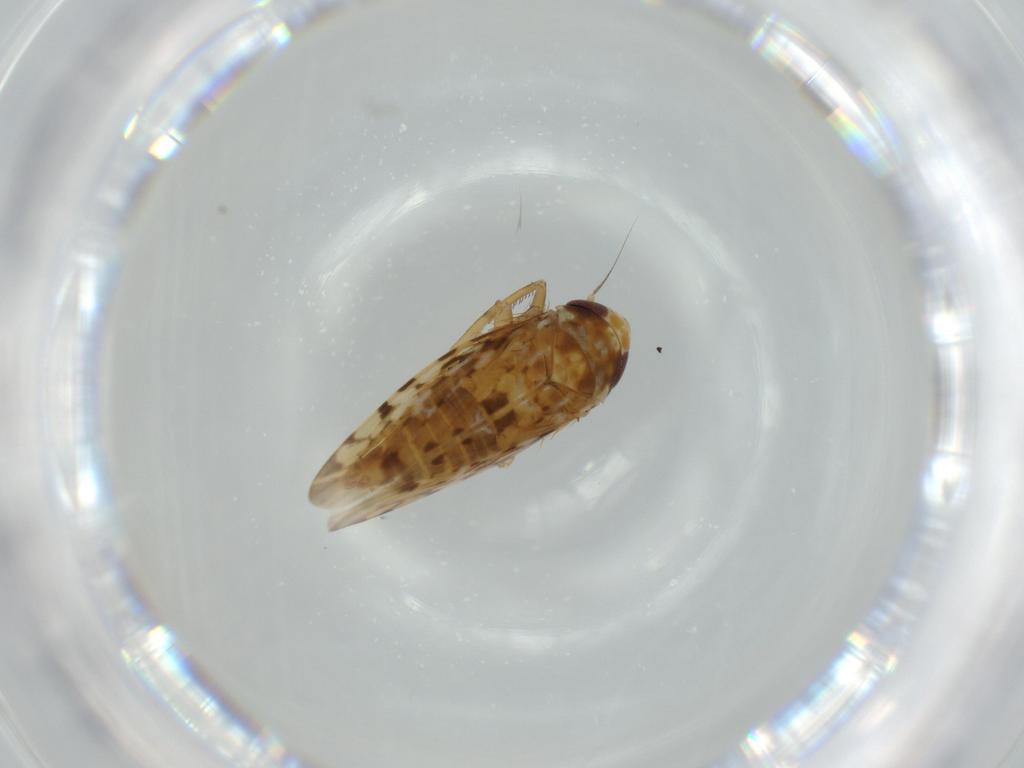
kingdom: Animalia
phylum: Arthropoda
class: Insecta
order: Hemiptera
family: Cicadellidae
